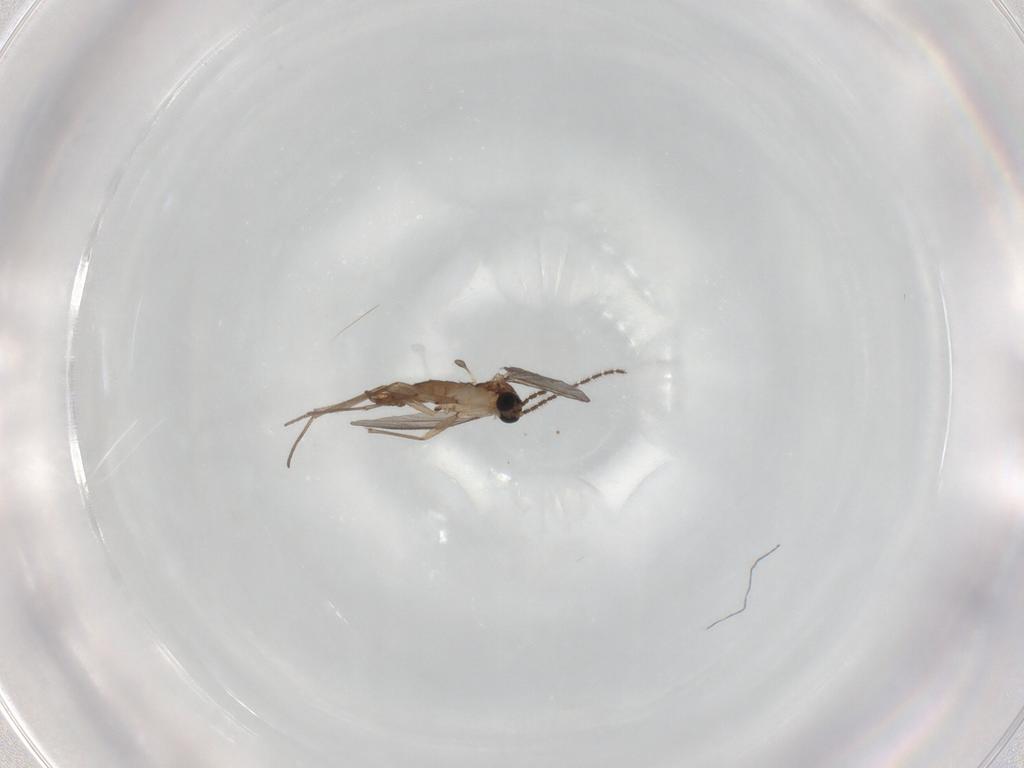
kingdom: Animalia
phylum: Arthropoda
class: Insecta
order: Diptera
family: Sciaridae
